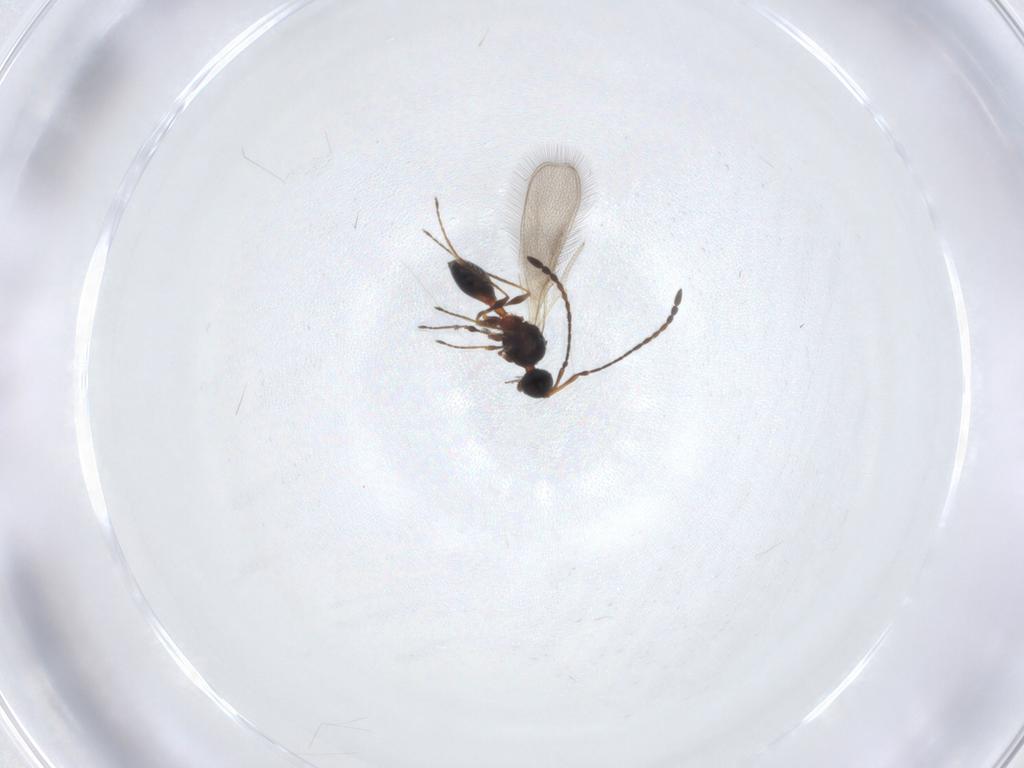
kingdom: Animalia
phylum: Arthropoda
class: Insecta
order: Hymenoptera
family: Diapriidae
